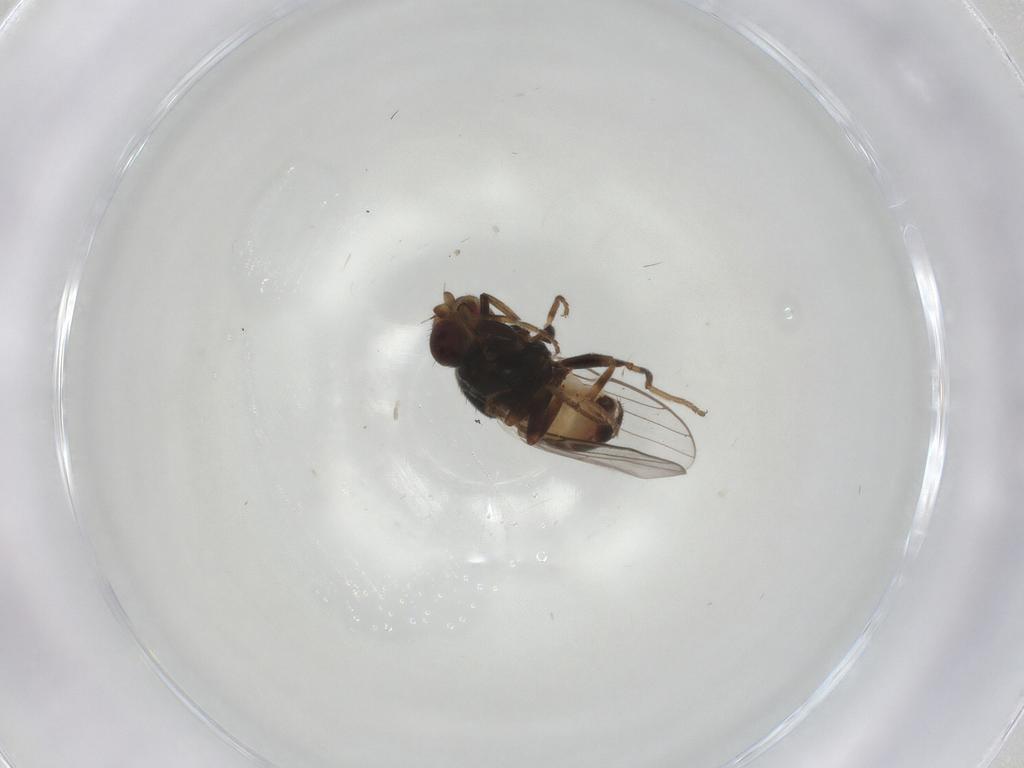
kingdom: Animalia
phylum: Arthropoda
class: Insecta
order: Diptera
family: Chloropidae
